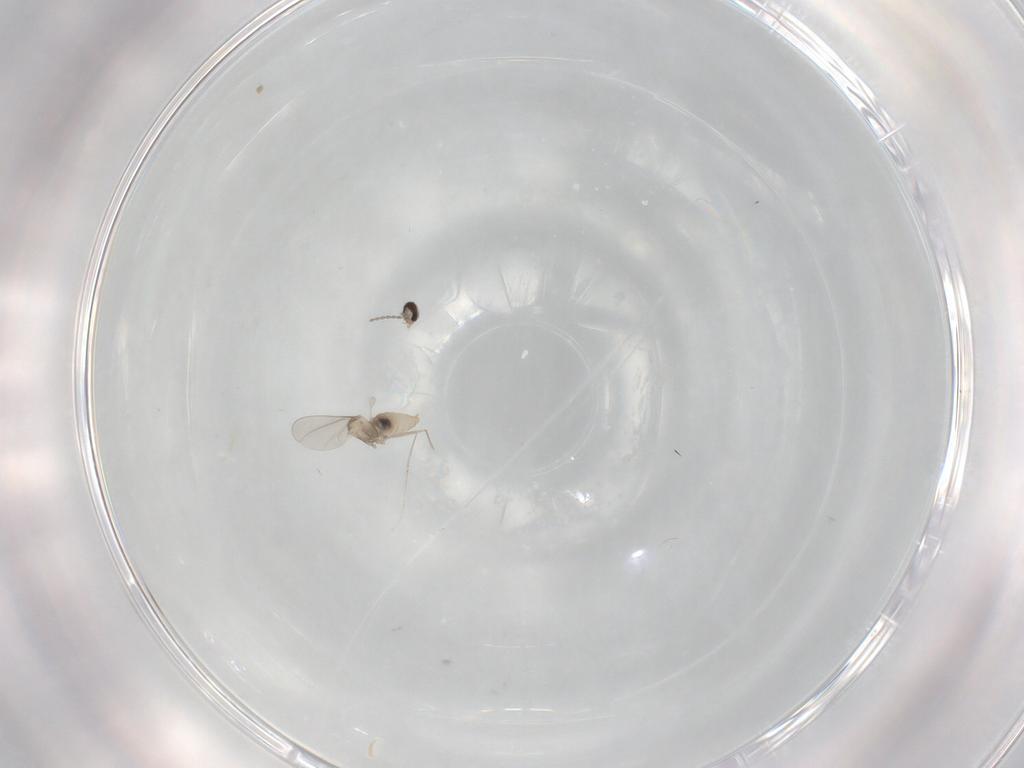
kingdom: Animalia
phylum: Arthropoda
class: Insecta
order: Diptera
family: Cecidomyiidae
